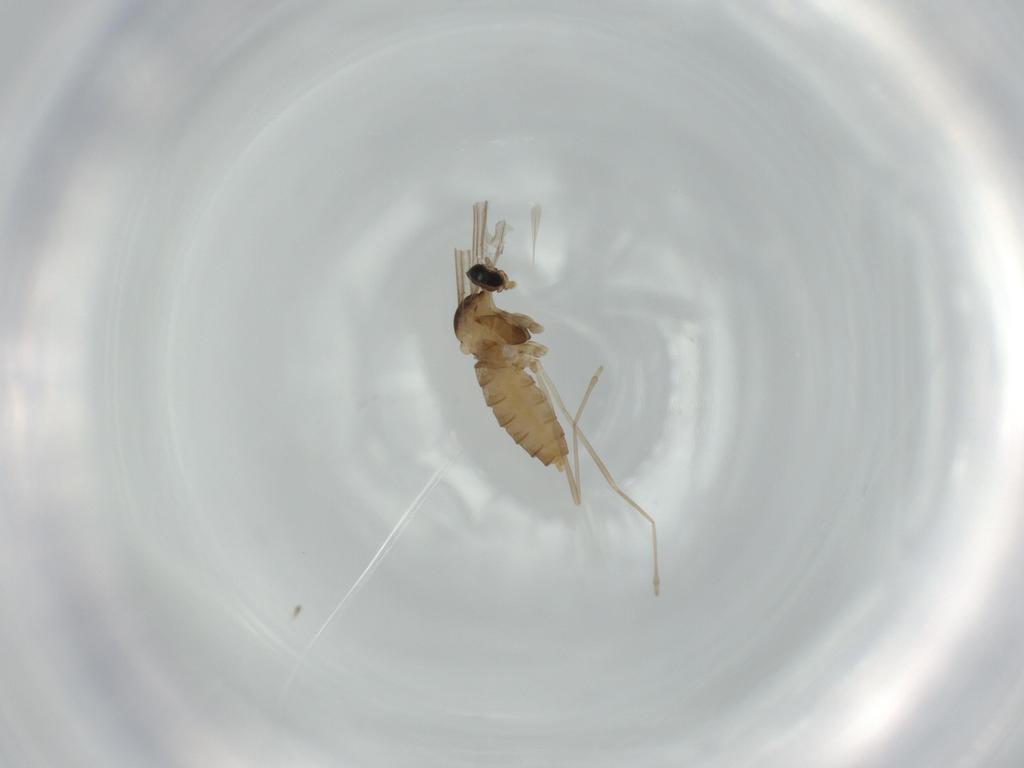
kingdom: Animalia
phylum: Arthropoda
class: Insecta
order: Diptera
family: Cecidomyiidae
